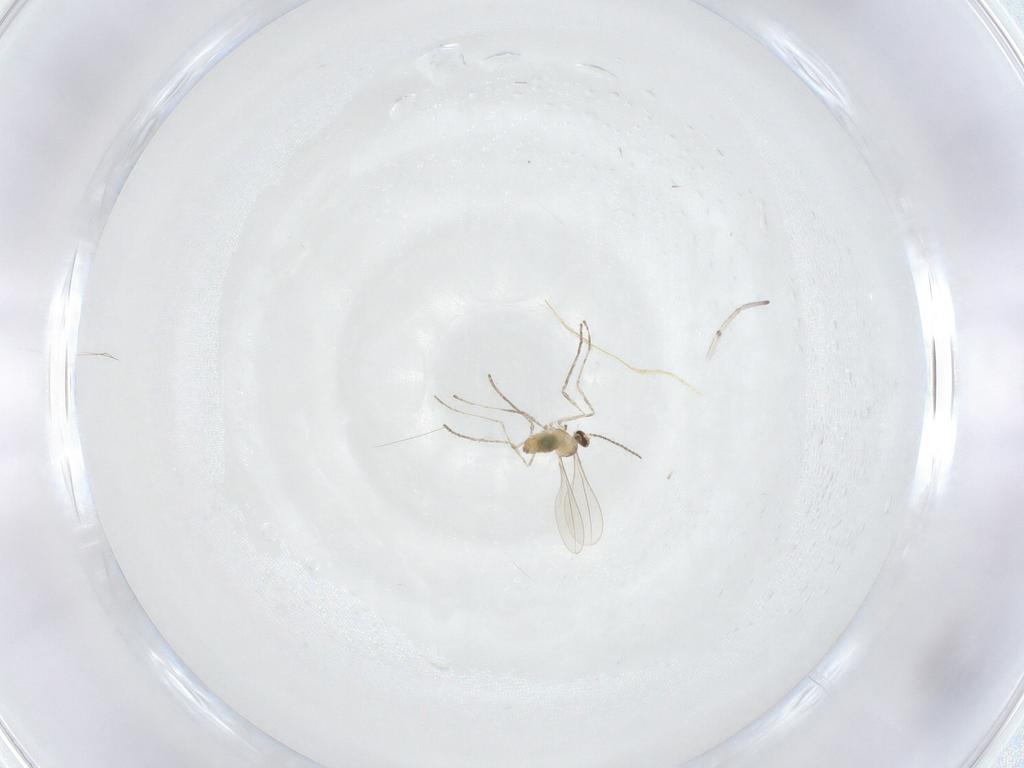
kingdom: Animalia
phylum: Arthropoda
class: Insecta
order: Diptera
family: Cecidomyiidae
